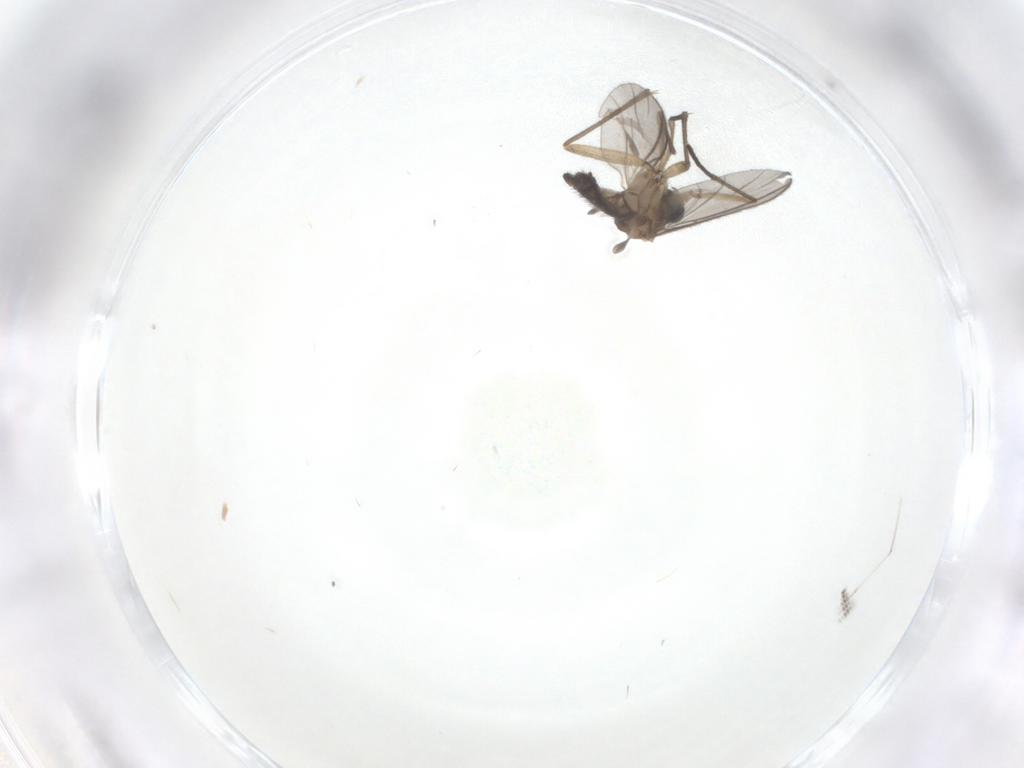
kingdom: Animalia
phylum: Arthropoda
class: Insecta
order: Diptera
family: Sciaridae
